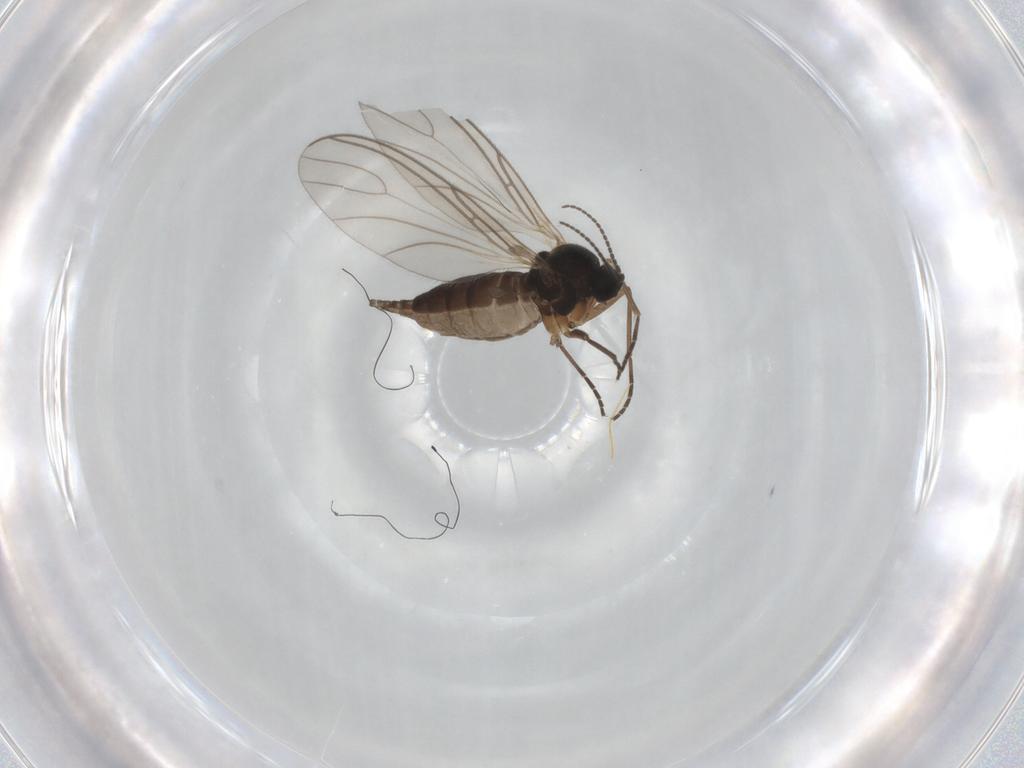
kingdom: Animalia
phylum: Arthropoda
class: Insecta
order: Diptera
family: Sciaridae
